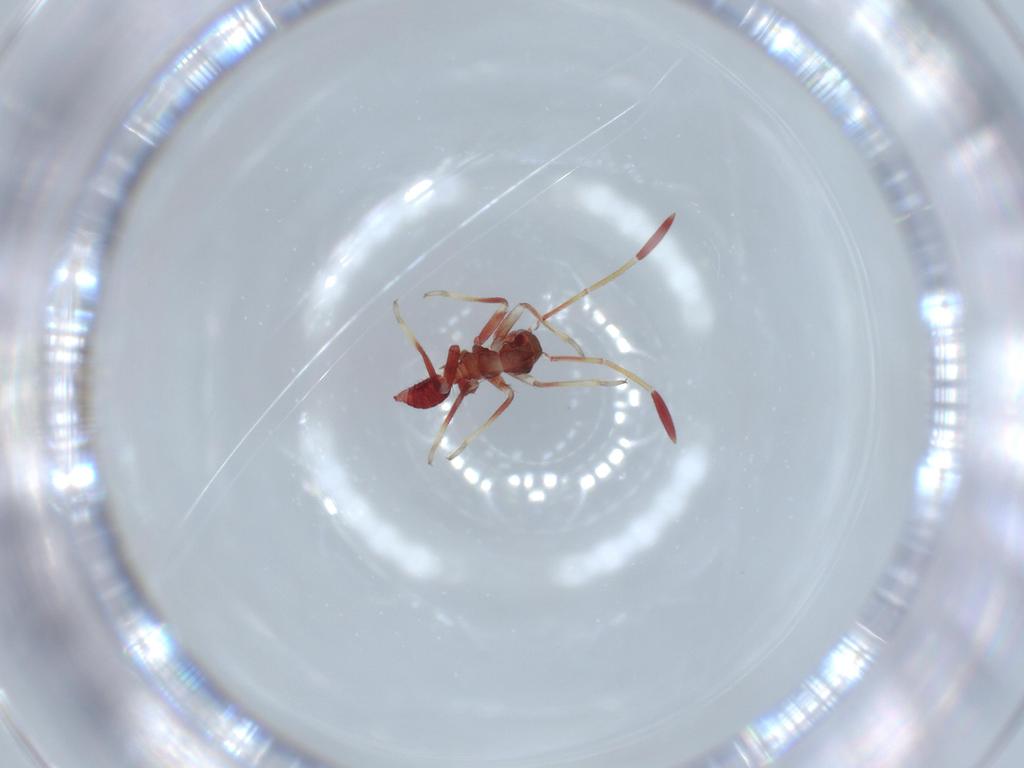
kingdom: Animalia
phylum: Arthropoda
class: Insecta
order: Hemiptera
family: Miridae
